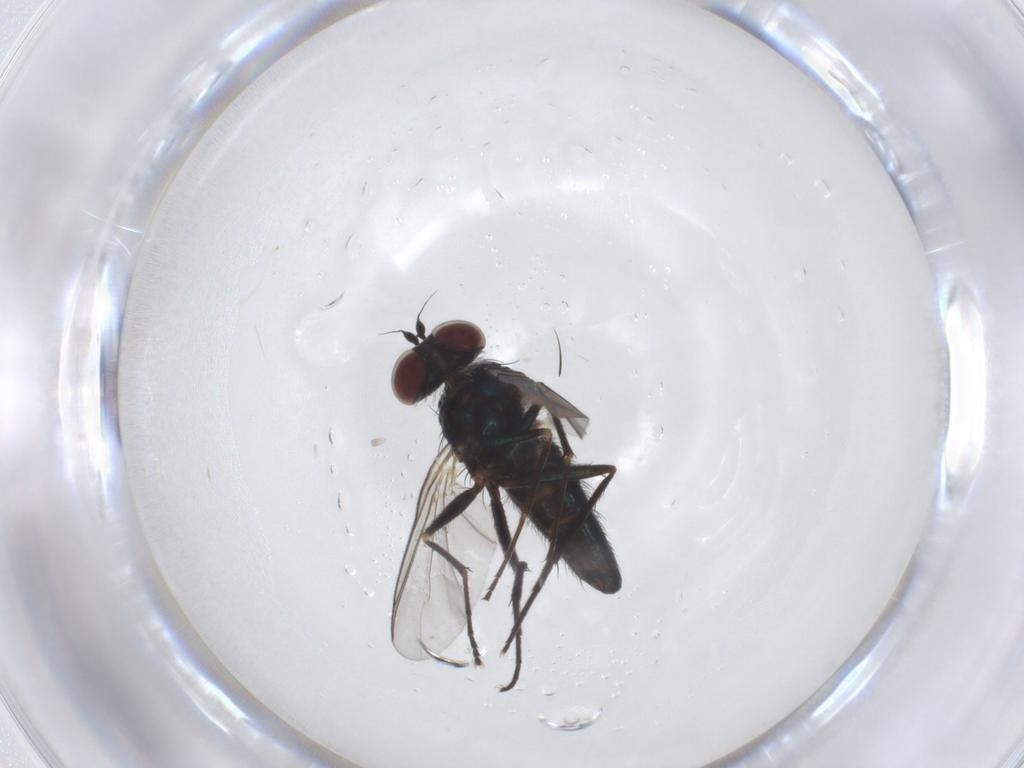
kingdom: Animalia
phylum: Arthropoda
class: Insecta
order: Diptera
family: Dolichopodidae
